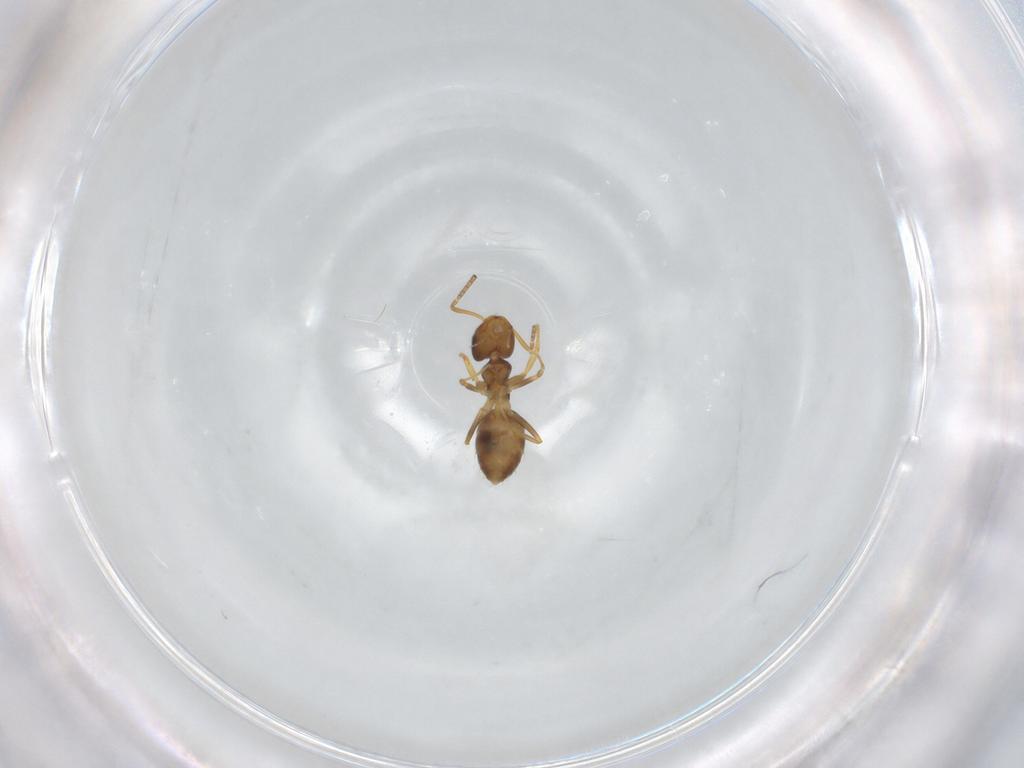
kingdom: Animalia
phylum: Arthropoda
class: Insecta
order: Hymenoptera
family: Formicidae
